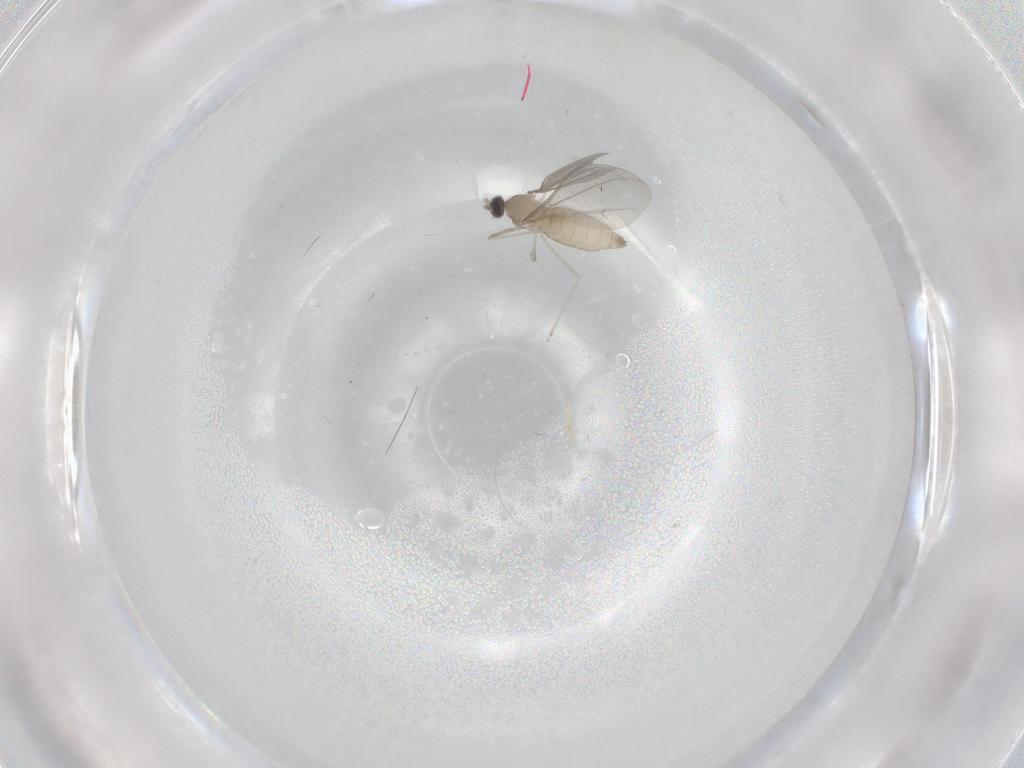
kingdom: Animalia
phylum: Arthropoda
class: Insecta
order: Diptera
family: Cecidomyiidae
